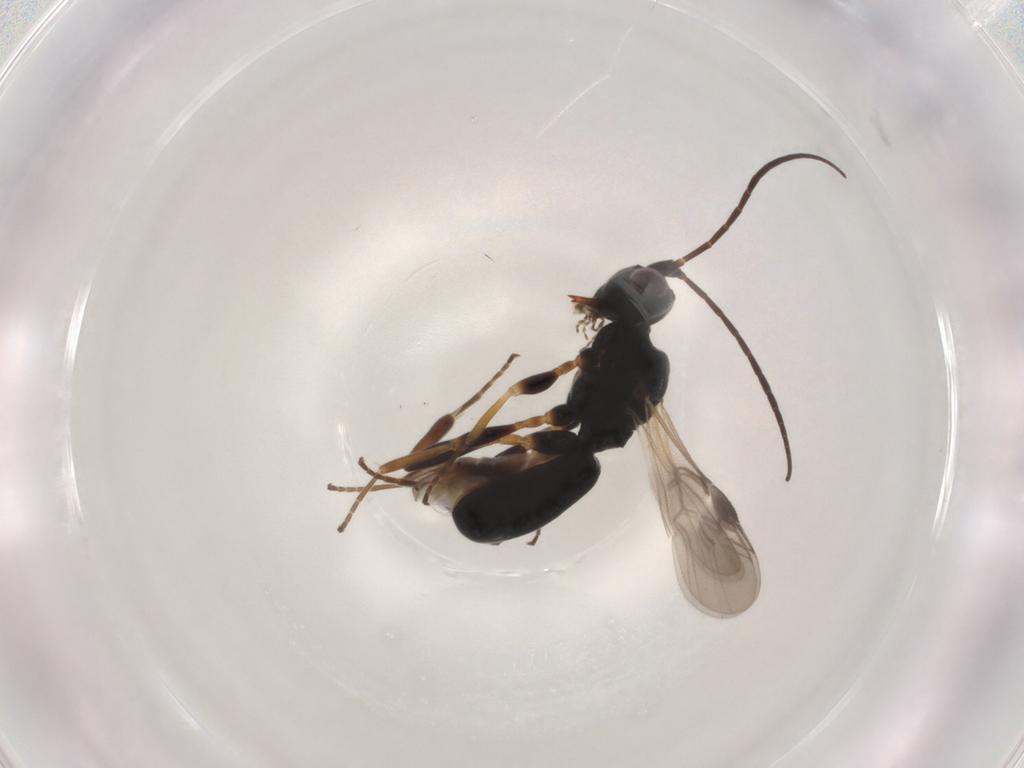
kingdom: Animalia
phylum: Arthropoda
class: Insecta
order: Hymenoptera
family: Braconidae
